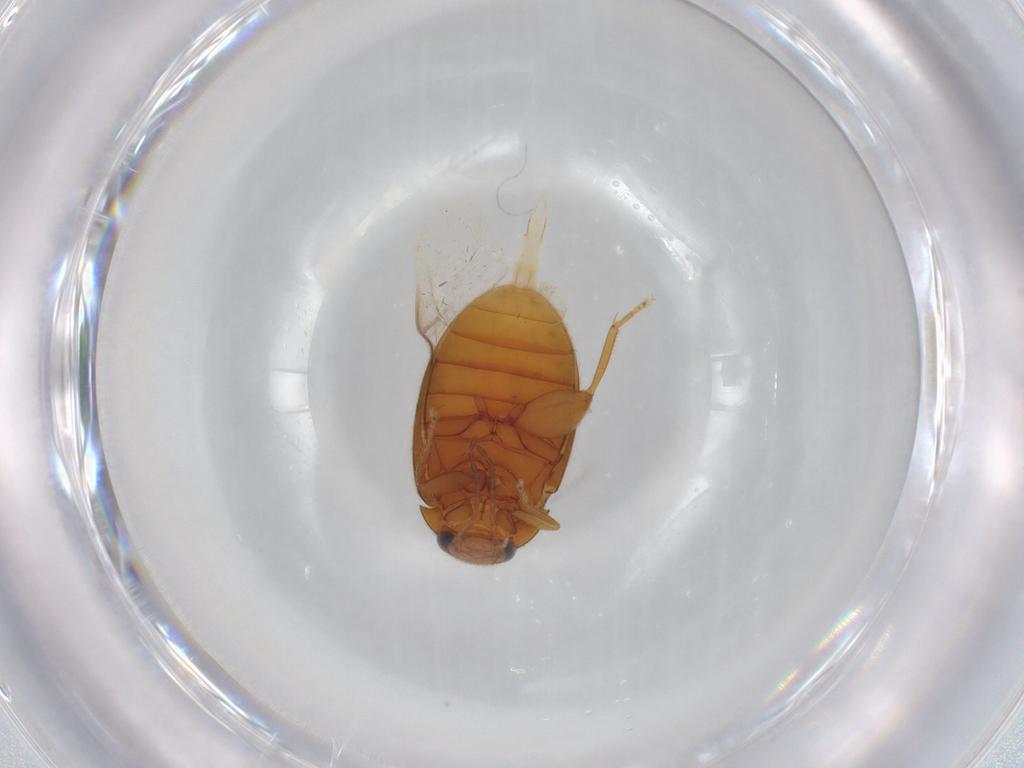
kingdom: Animalia
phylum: Arthropoda
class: Insecta
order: Coleoptera
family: Scirtidae
